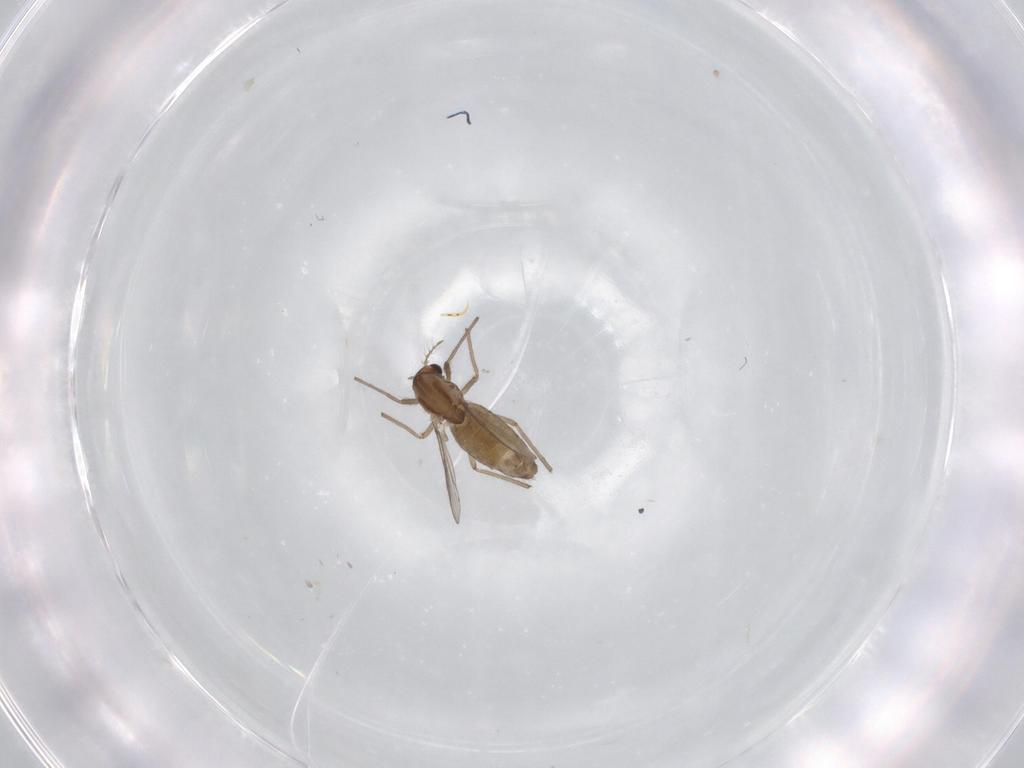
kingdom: Animalia
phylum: Arthropoda
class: Insecta
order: Diptera
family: Chironomidae
